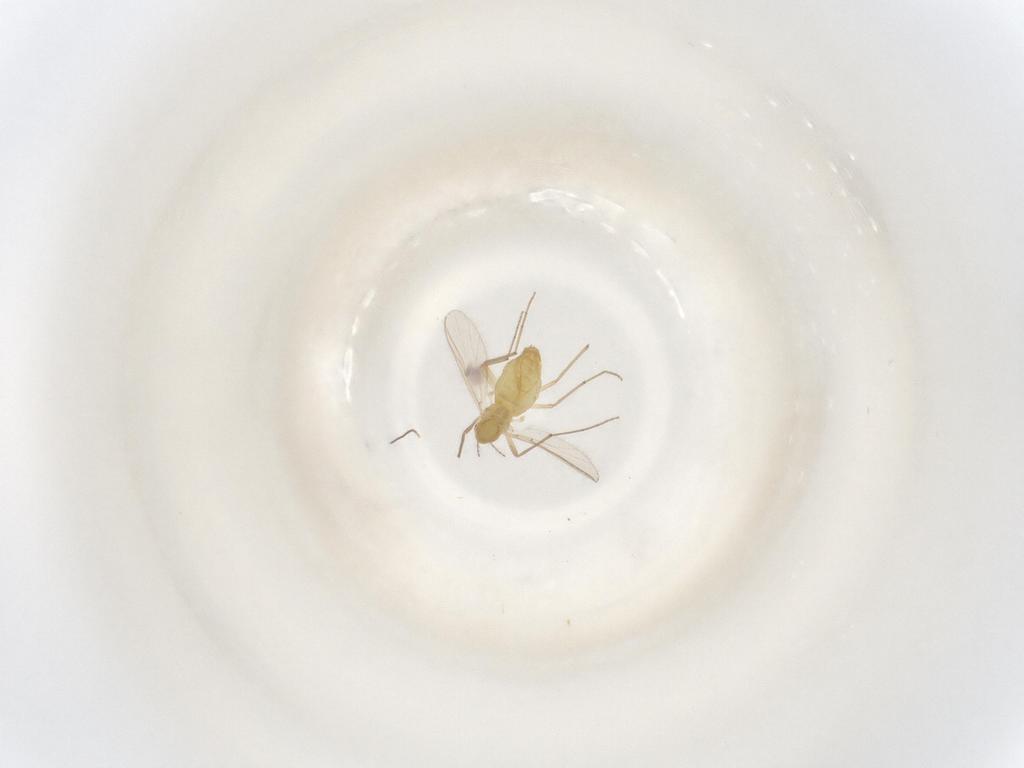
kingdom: Animalia
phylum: Arthropoda
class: Insecta
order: Diptera
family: Chironomidae
